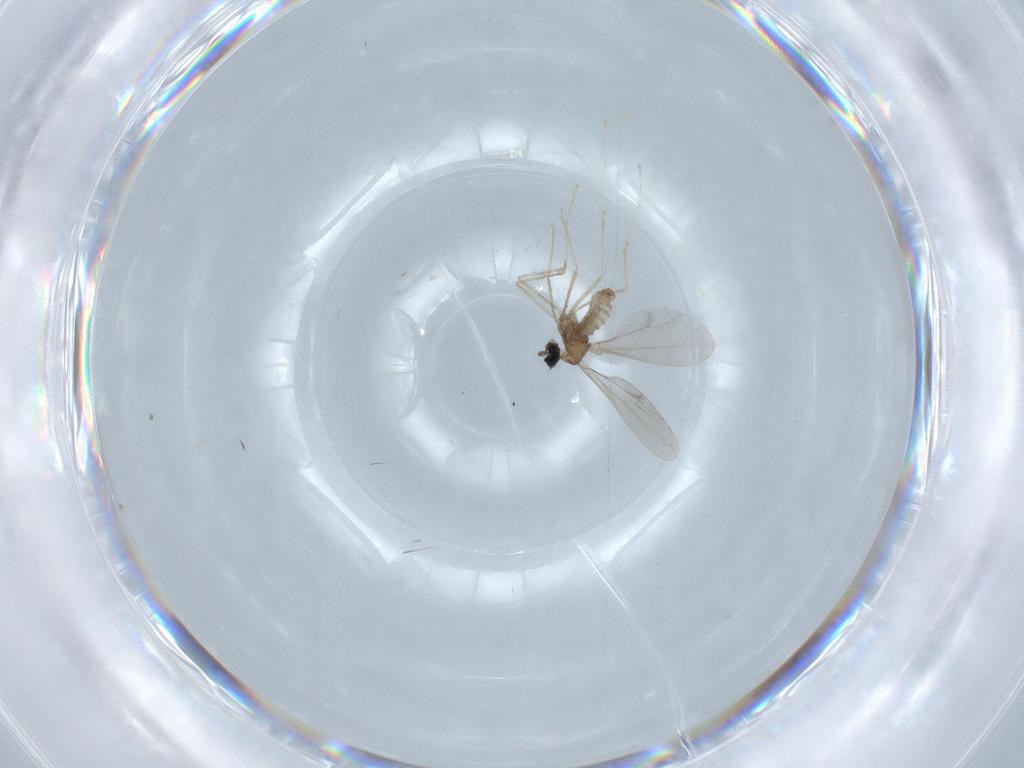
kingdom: Animalia
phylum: Arthropoda
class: Insecta
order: Diptera
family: Cecidomyiidae
